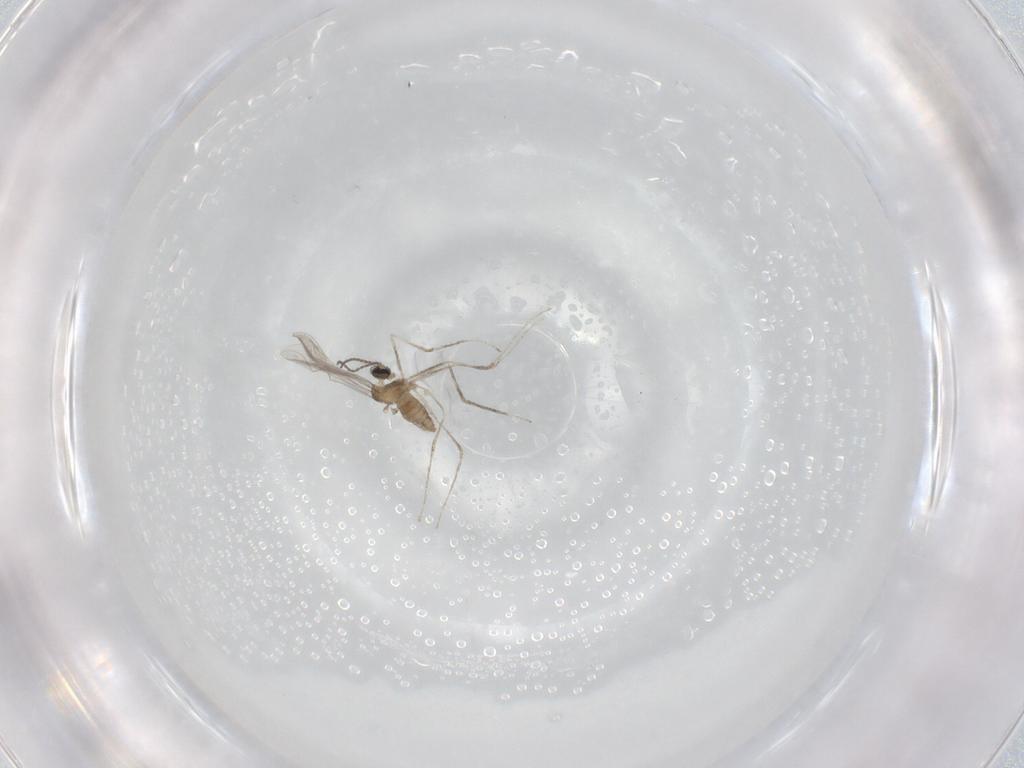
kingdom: Animalia
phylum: Arthropoda
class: Insecta
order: Diptera
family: Cecidomyiidae
